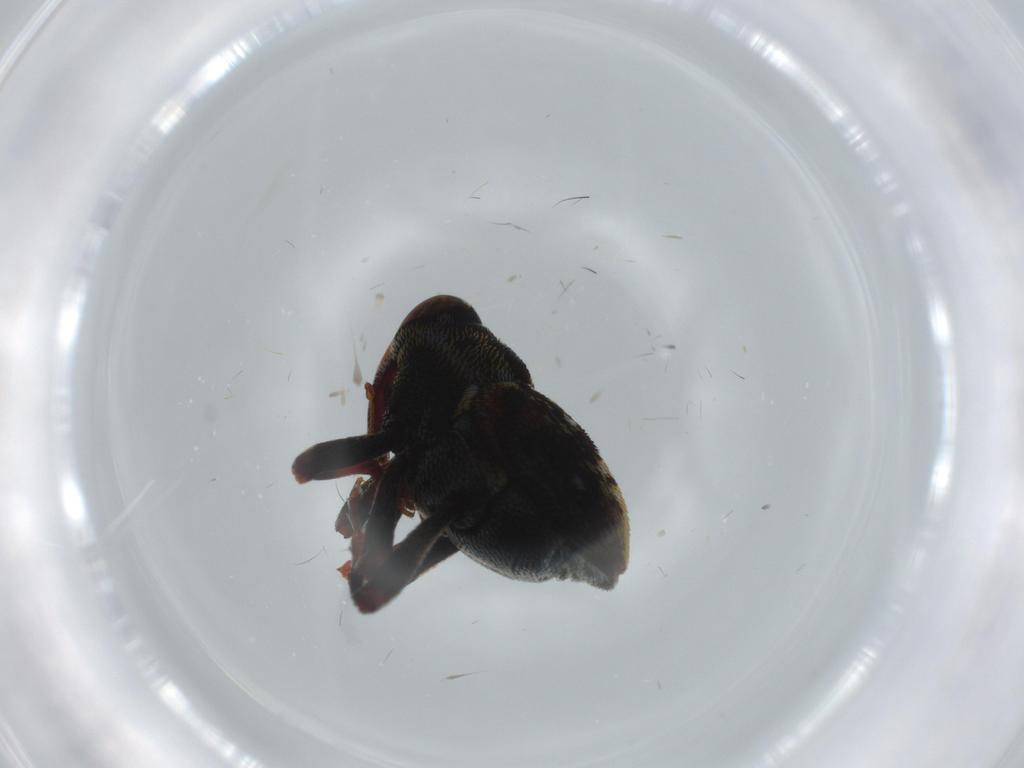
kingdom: Animalia
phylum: Arthropoda
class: Insecta
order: Coleoptera
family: Curculionidae
